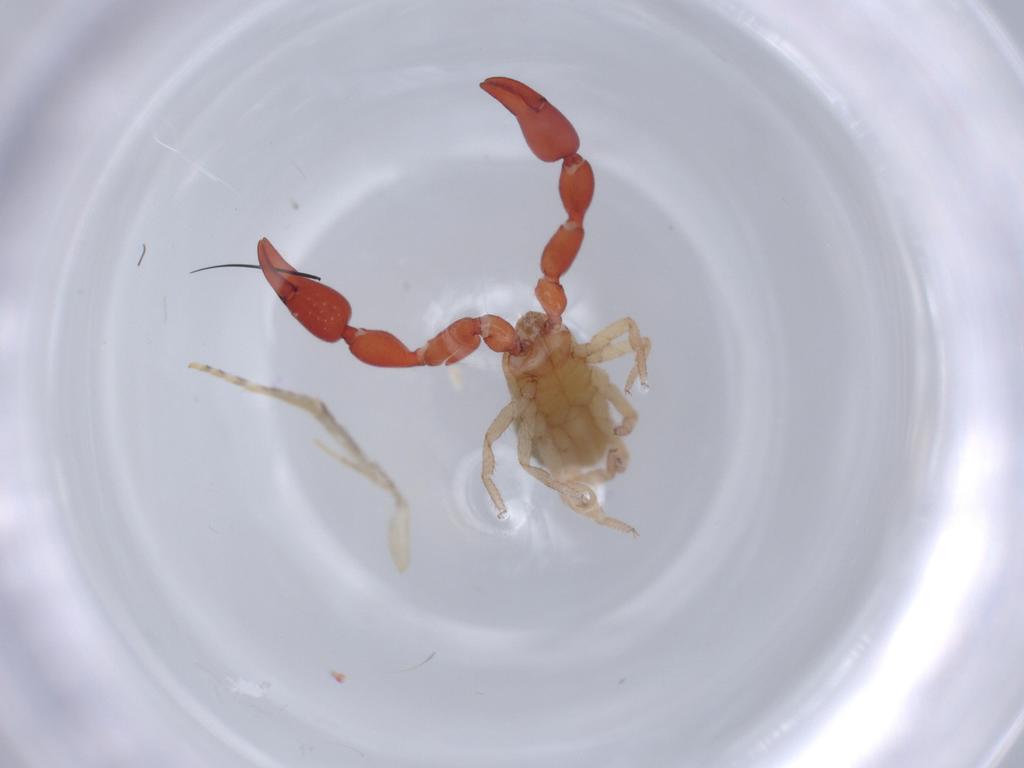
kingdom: Animalia
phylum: Arthropoda
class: Arachnida
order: Pseudoscorpiones
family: Chernetidae
